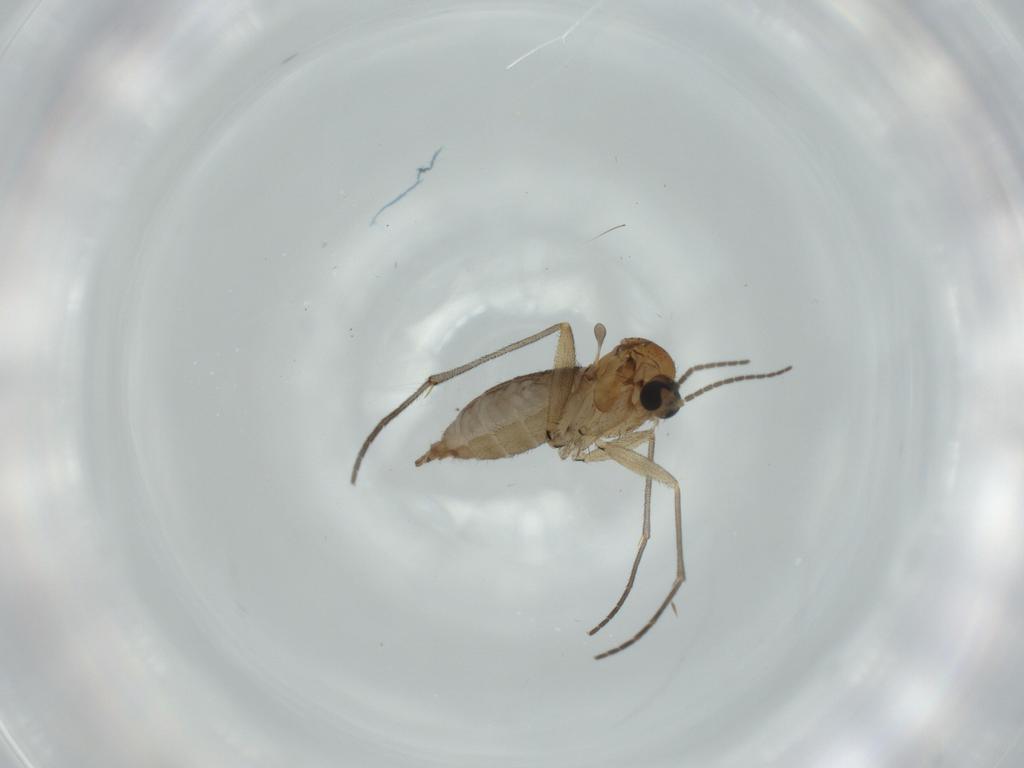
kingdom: Animalia
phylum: Arthropoda
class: Insecta
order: Diptera
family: Sciaridae
